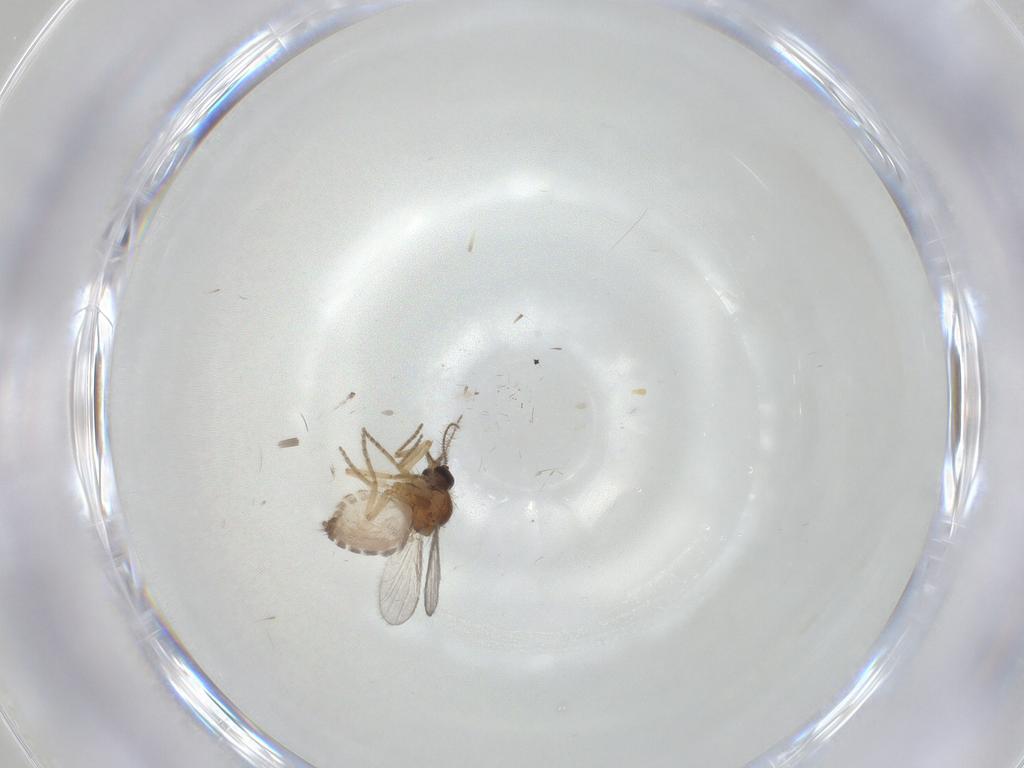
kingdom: Animalia
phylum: Arthropoda
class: Insecta
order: Diptera
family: Ceratopogonidae
